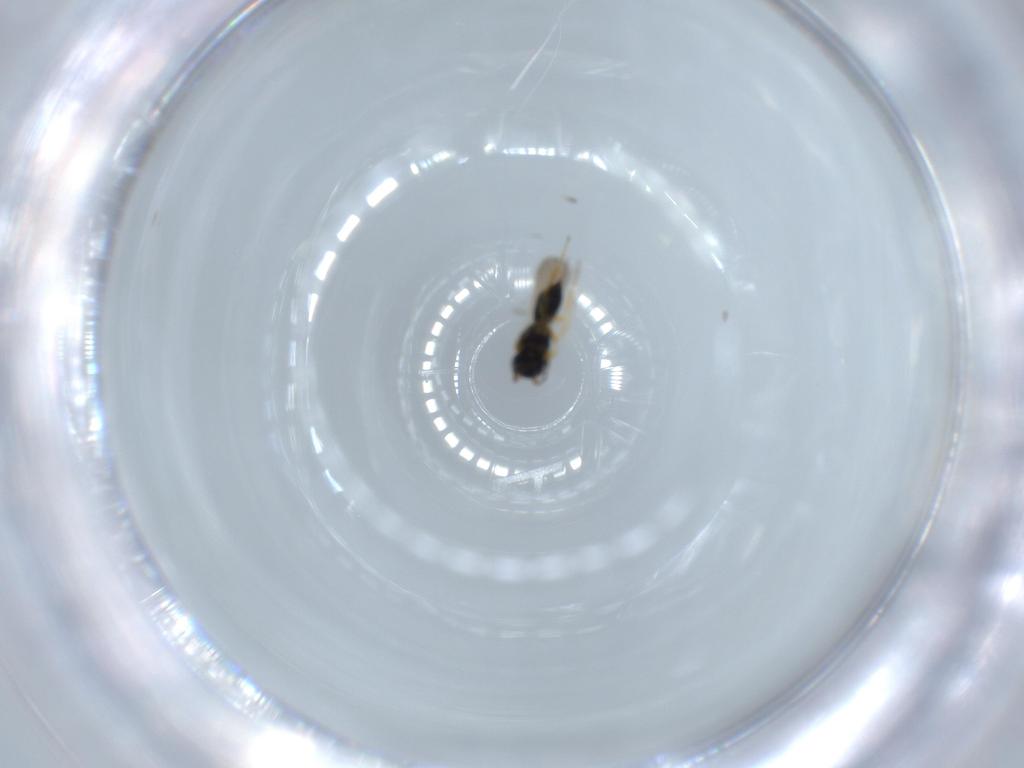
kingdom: Animalia
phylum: Arthropoda
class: Insecta
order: Hymenoptera
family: Scelionidae
